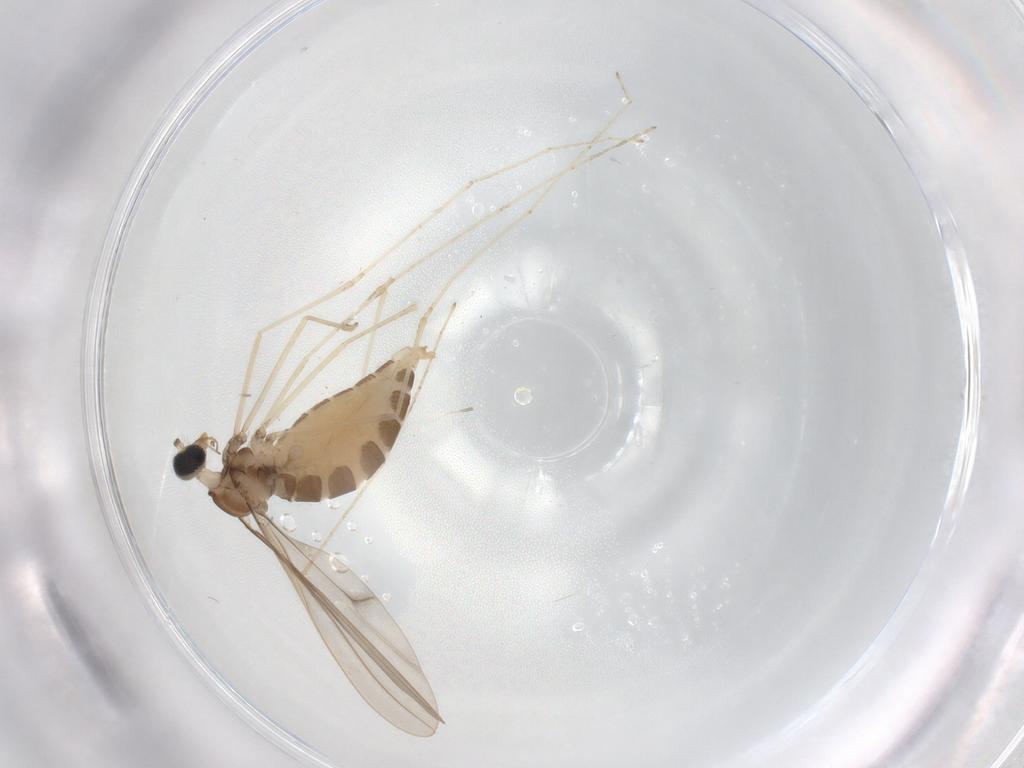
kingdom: Animalia
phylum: Arthropoda
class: Insecta
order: Diptera
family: Cecidomyiidae
